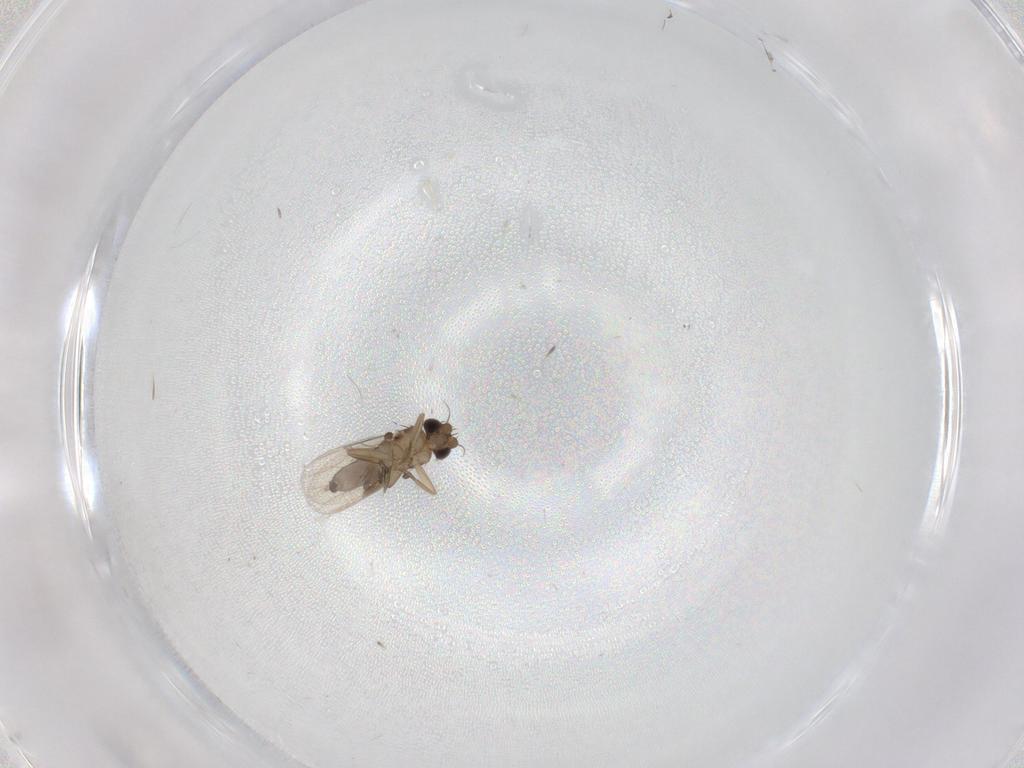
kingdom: Animalia
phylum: Arthropoda
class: Insecta
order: Diptera
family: Phoridae
